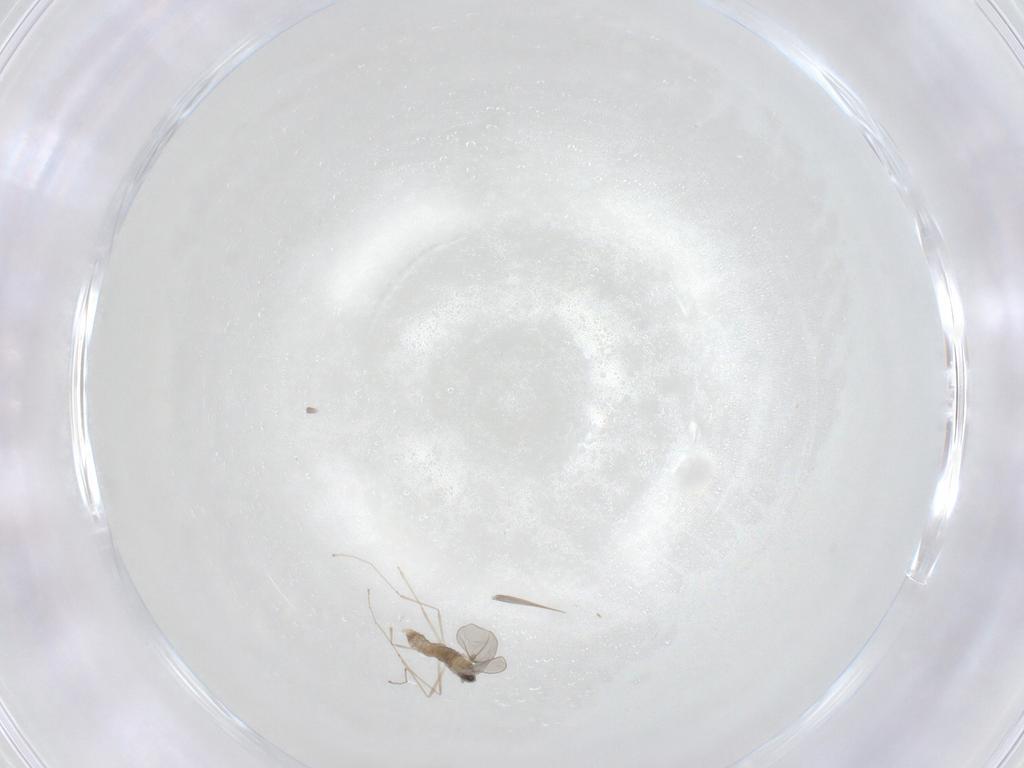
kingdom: Animalia
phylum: Arthropoda
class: Insecta
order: Diptera
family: Cecidomyiidae
